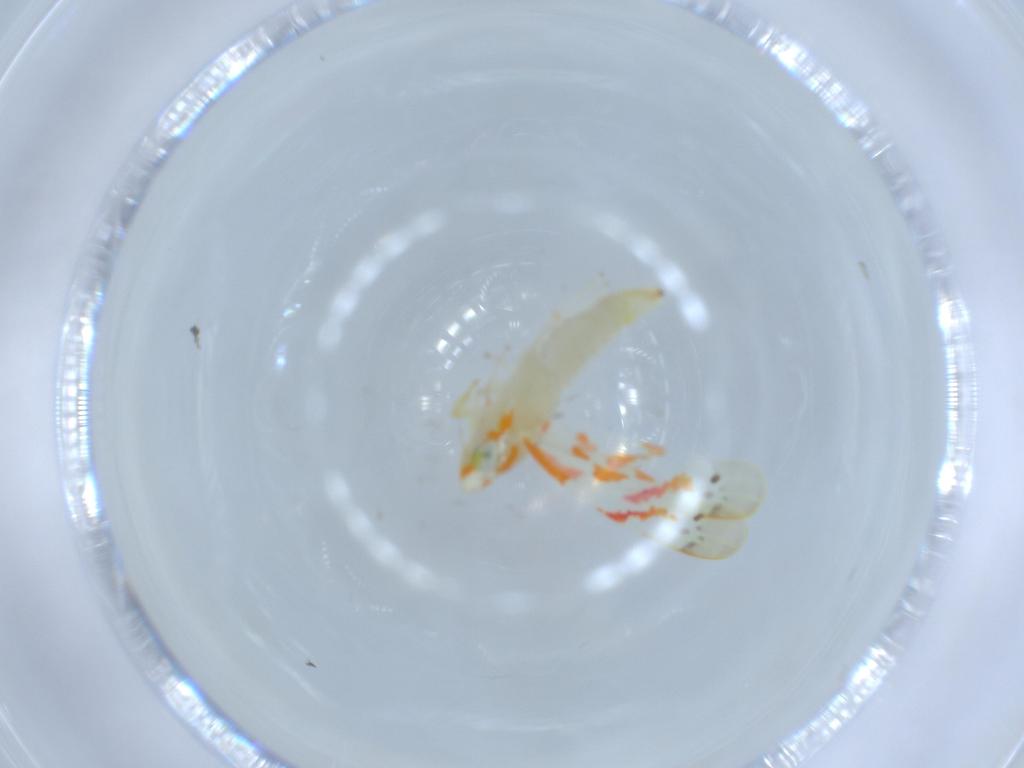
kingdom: Animalia
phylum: Arthropoda
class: Insecta
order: Hemiptera
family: Cicadellidae
